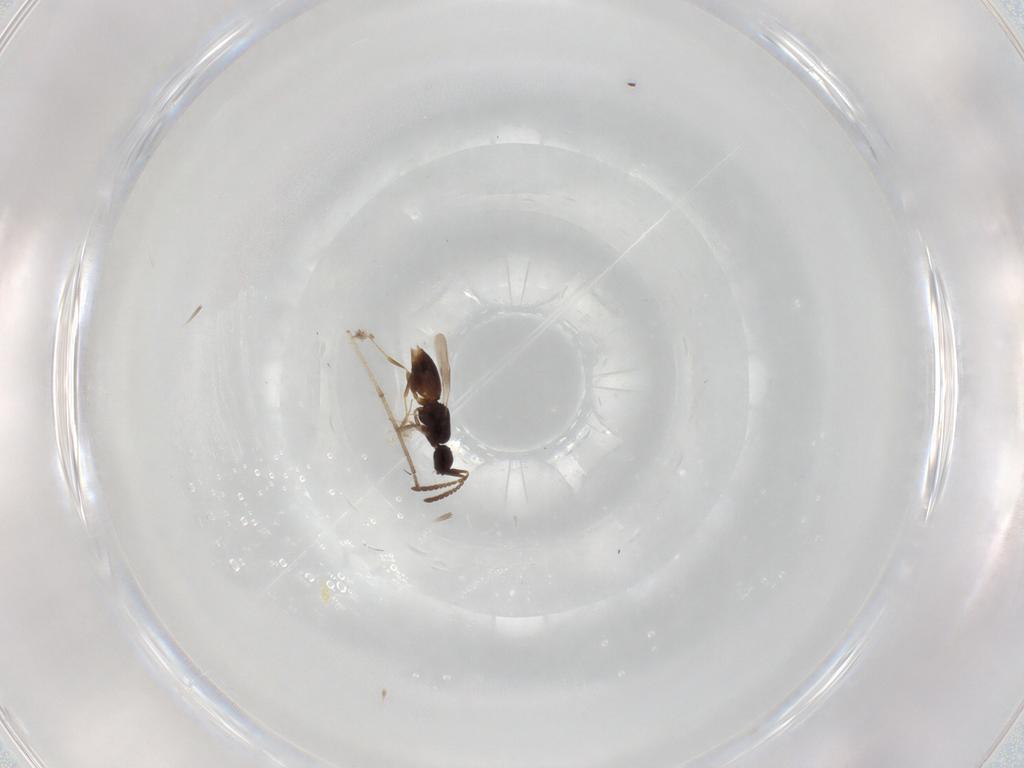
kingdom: Animalia
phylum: Arthropoda
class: Insecta
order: Hymenoptera
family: Ceraphronidae
